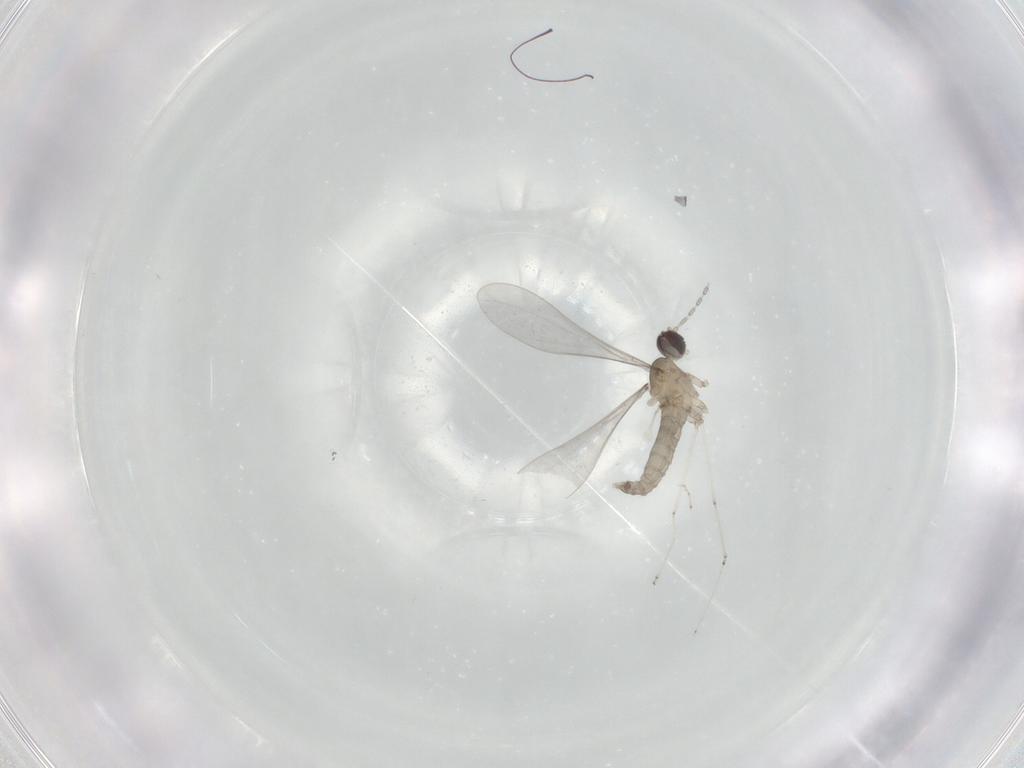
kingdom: Animalia
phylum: Arthropoda
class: Insecta
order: Diptera
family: Cecidomyiidae
